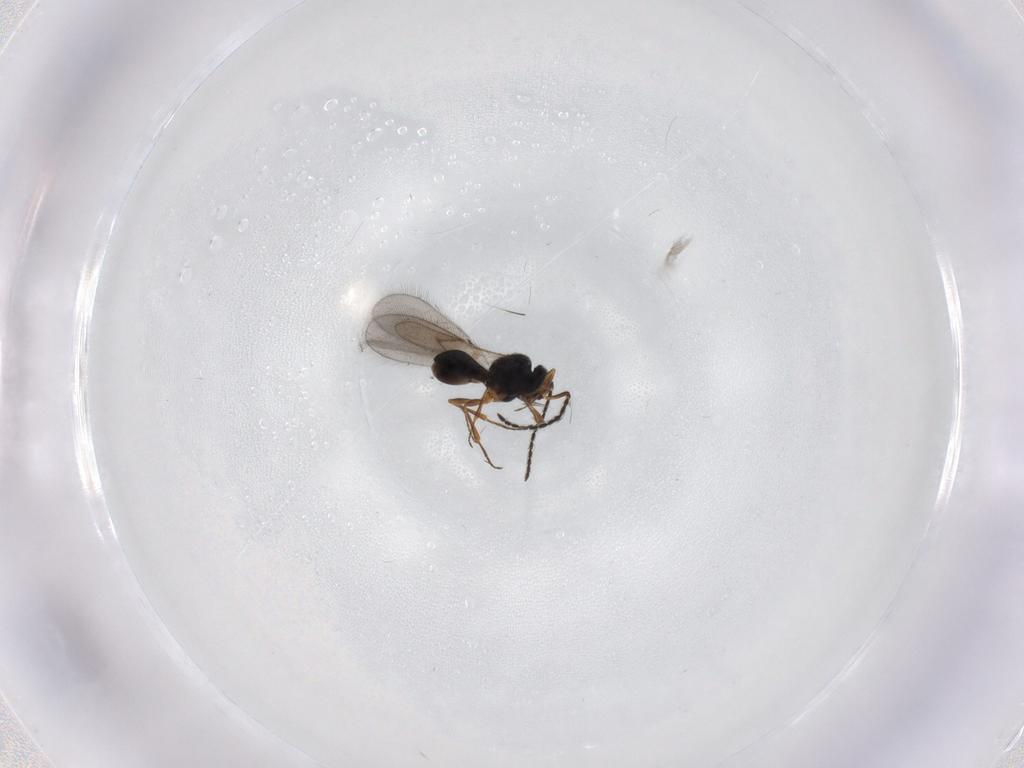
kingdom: Animalia
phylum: Arthropoda
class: Insecta
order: Hymenoptera
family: Scelionidae
